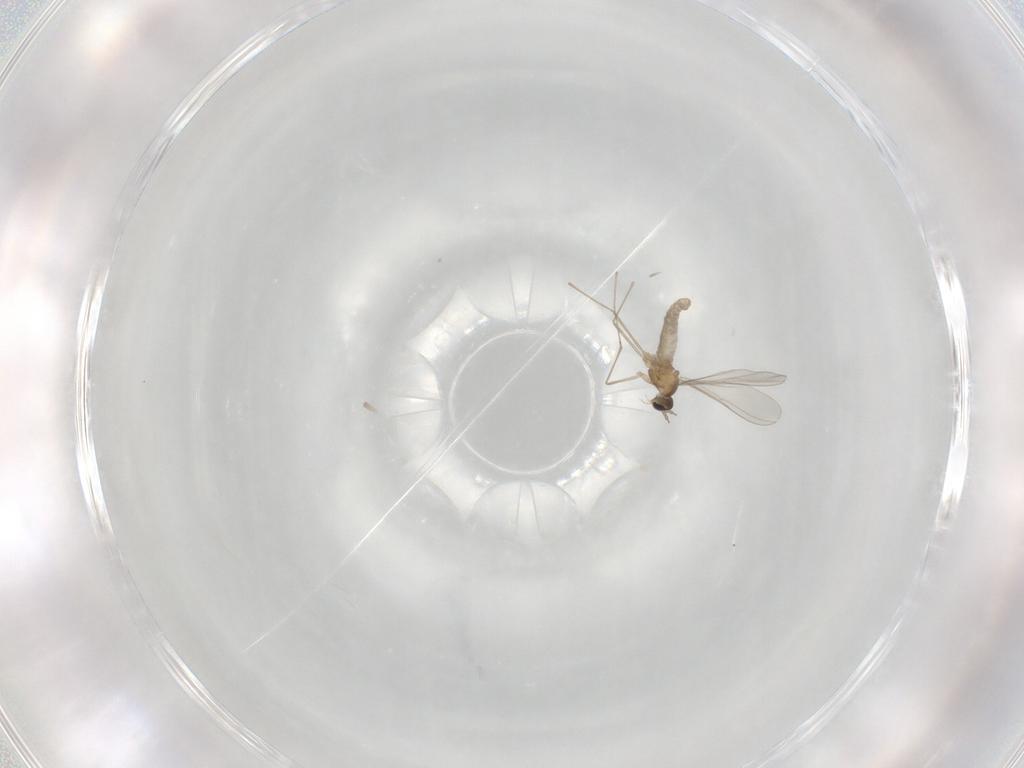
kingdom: Animalia
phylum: Arthropoda
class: Insecta
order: Diptera
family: Cecidomyiidae
